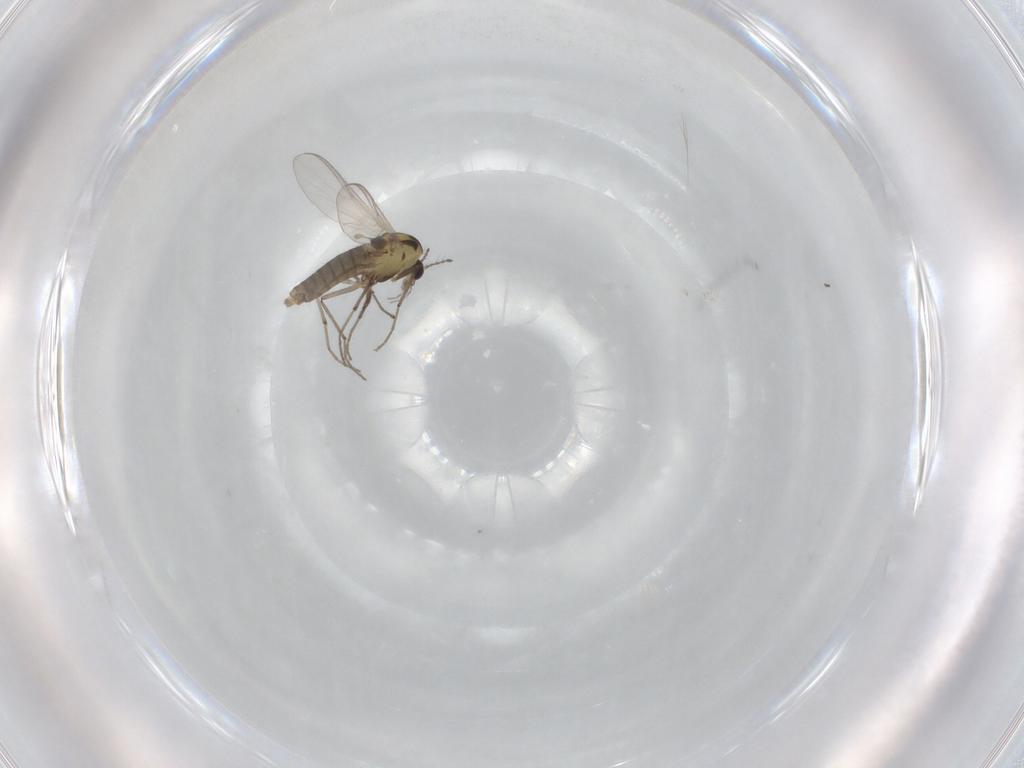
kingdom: Animalia
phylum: Arthropoda
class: Insecta
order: Diptera
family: Chironomidae
